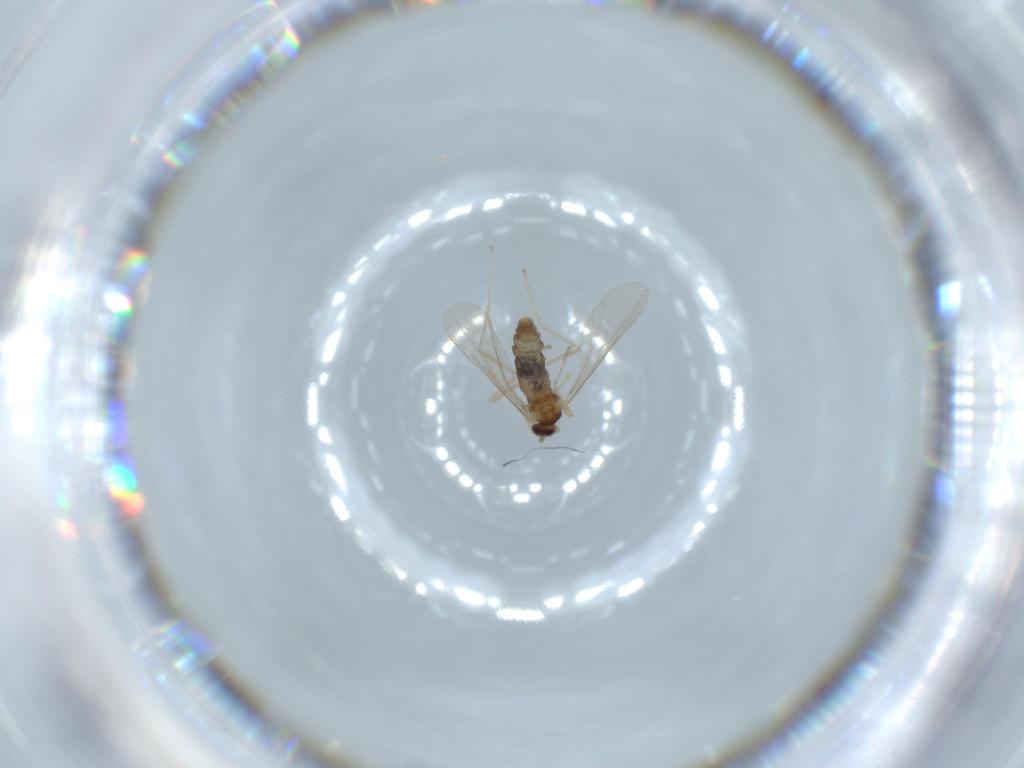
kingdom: Animalia
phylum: Arthropoda
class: Insecta
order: Diptera
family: Cecidomyiidae
